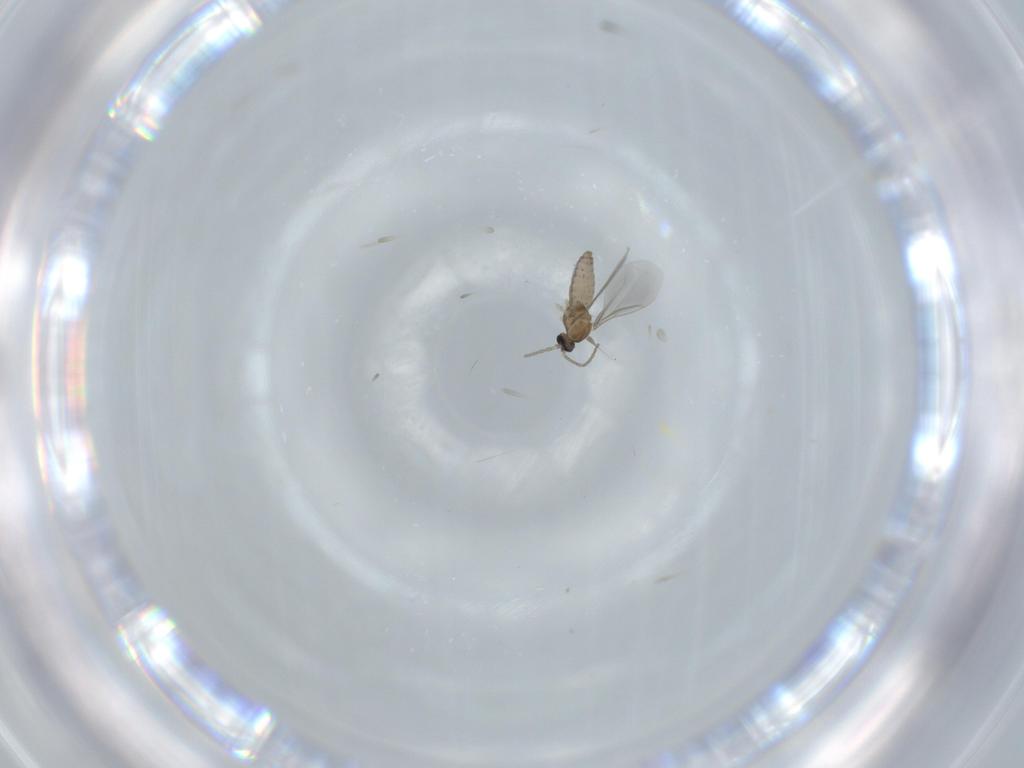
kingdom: Animalia
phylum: Arthropoda
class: Insecta
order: Diptera
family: Cecidomyiidae
